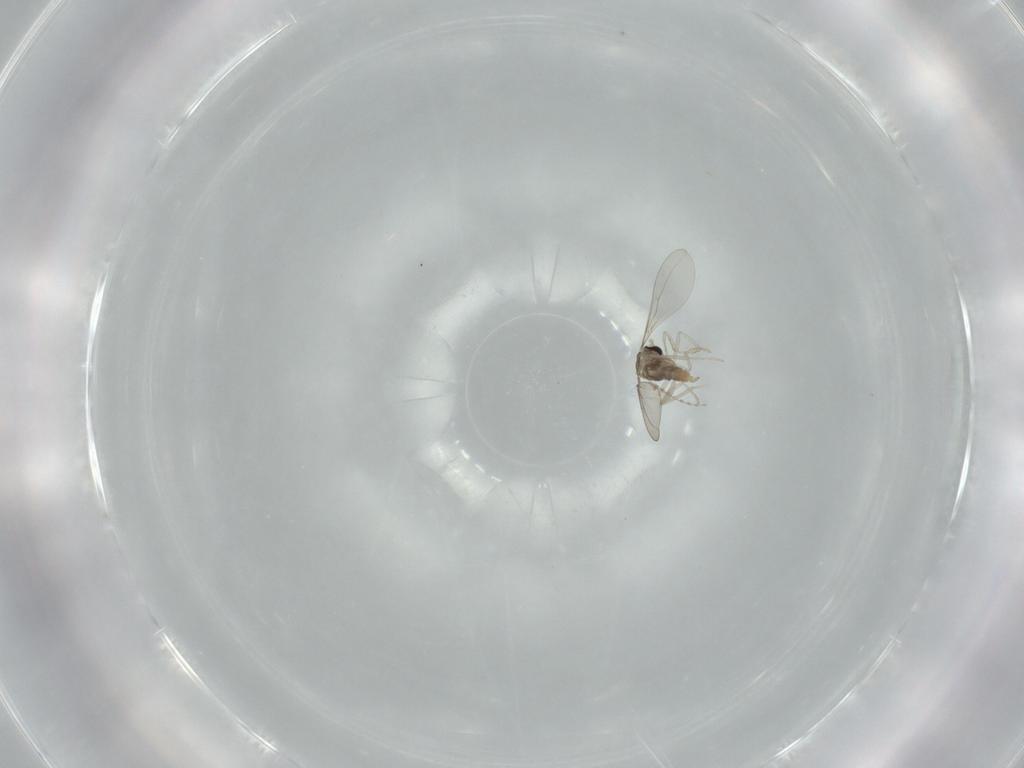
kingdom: Animalia
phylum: Arthropoda
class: Insecta
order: Diptera
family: Cecidomyiidae
